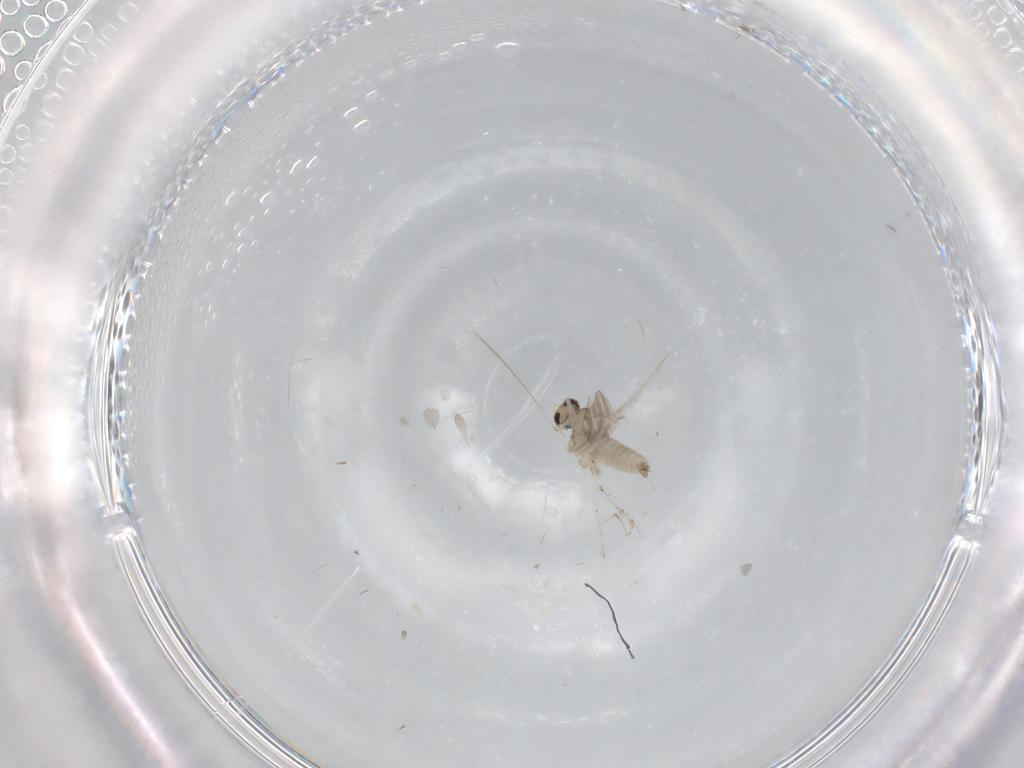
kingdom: Animalia
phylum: Arthropoda
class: Insecta
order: Diptera
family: Cecidomyiidae
